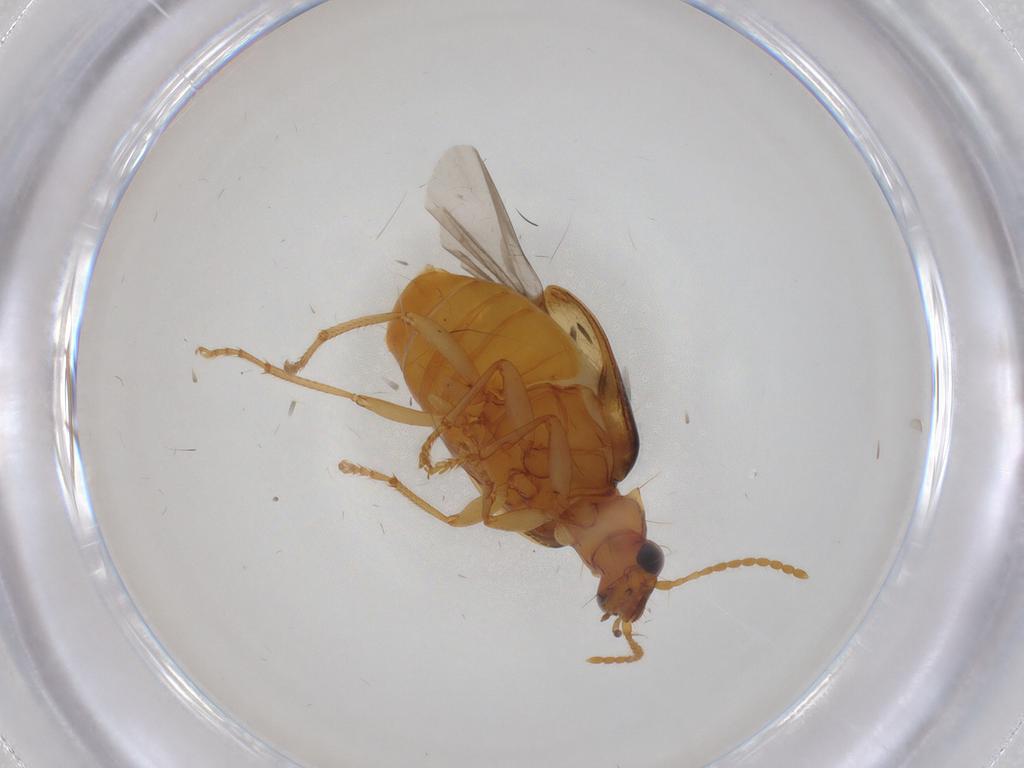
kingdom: Animalia
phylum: Arthropoda
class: Insecta
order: Coleoptera
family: Carabidae
